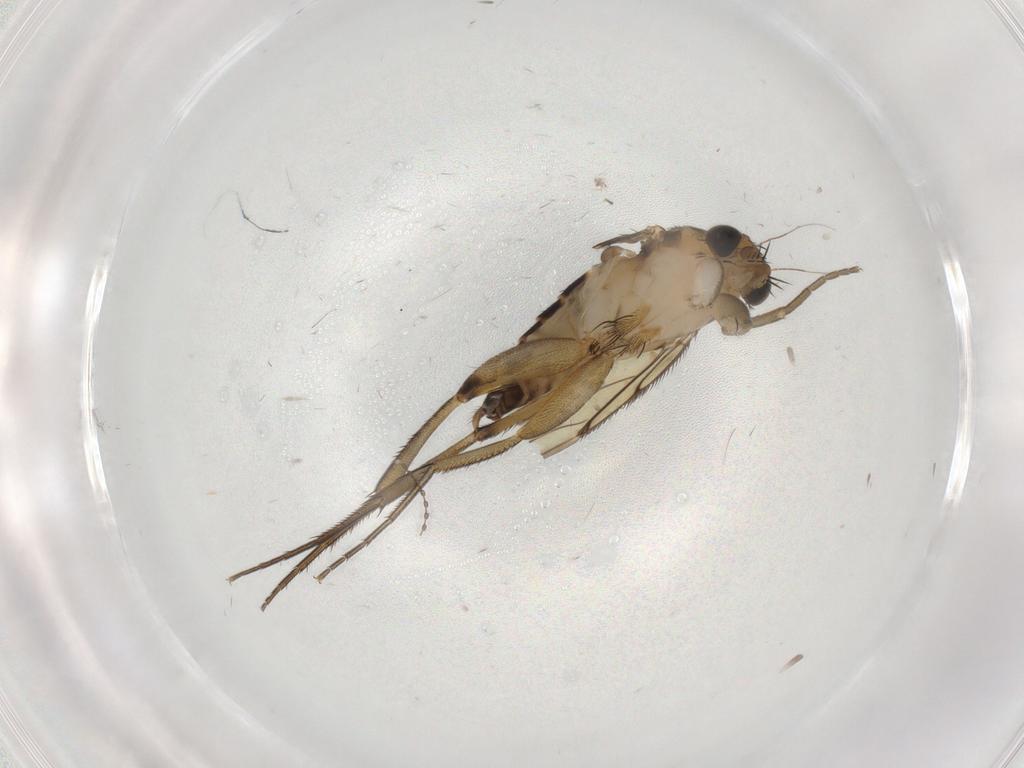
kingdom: Animalia
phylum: Arthropoda
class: Insecta
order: Diptera
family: Phoridae
